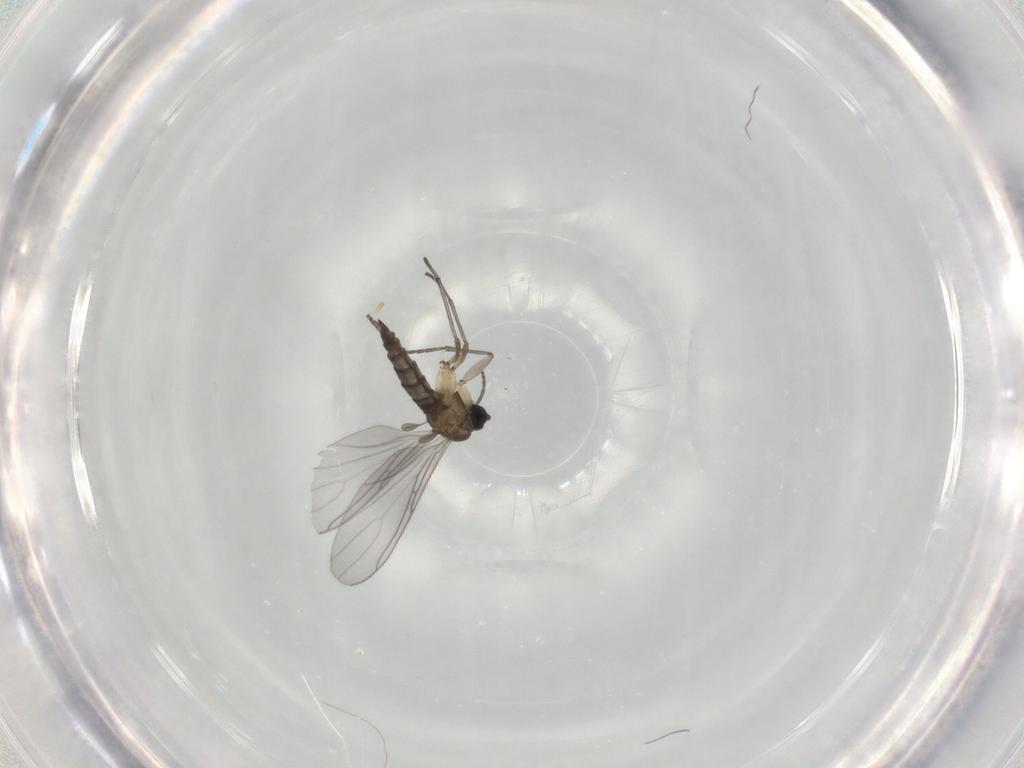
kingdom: Animalia
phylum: Arthropoda
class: Insecta
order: Diptera
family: Sciaridae
